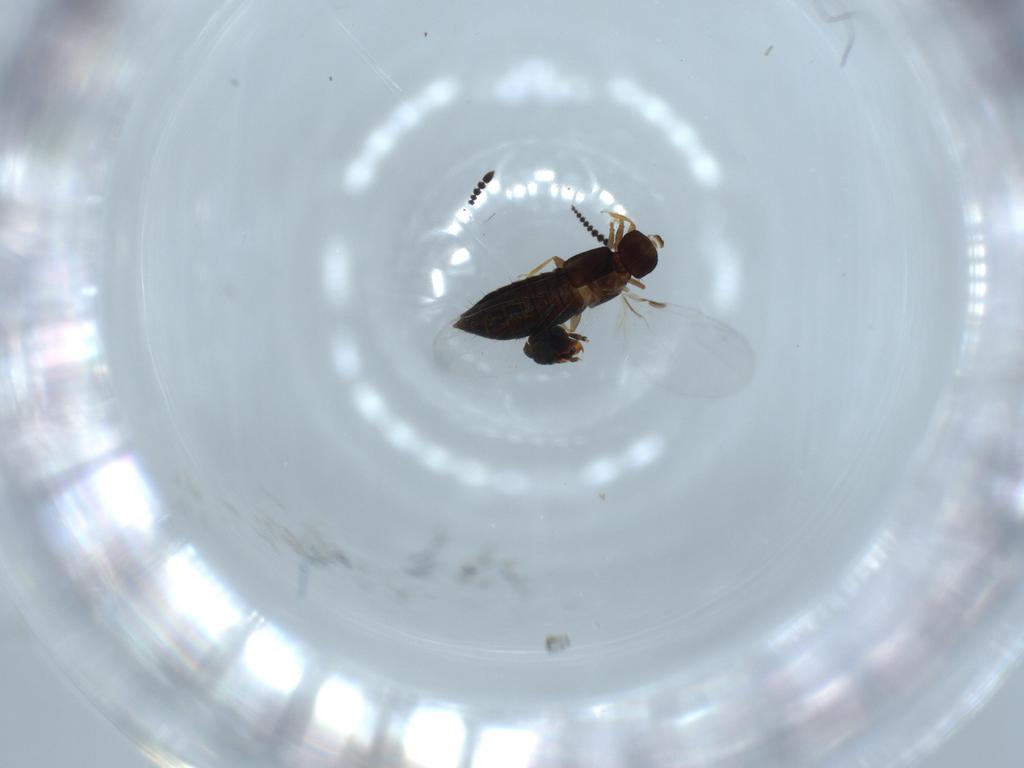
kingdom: Animalia
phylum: Arthropoda
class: Insecta
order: Coleoptera
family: Staphylinidae
